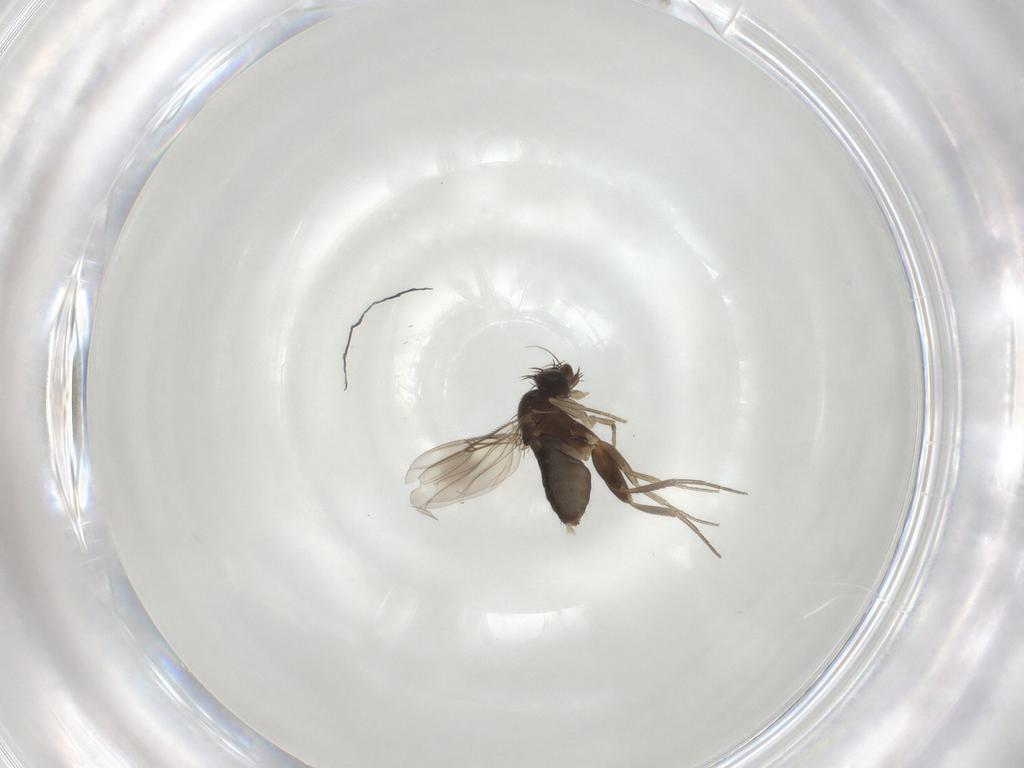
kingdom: Animalia
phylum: Arthropoda
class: Insecta
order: Diptera
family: Phoridae
